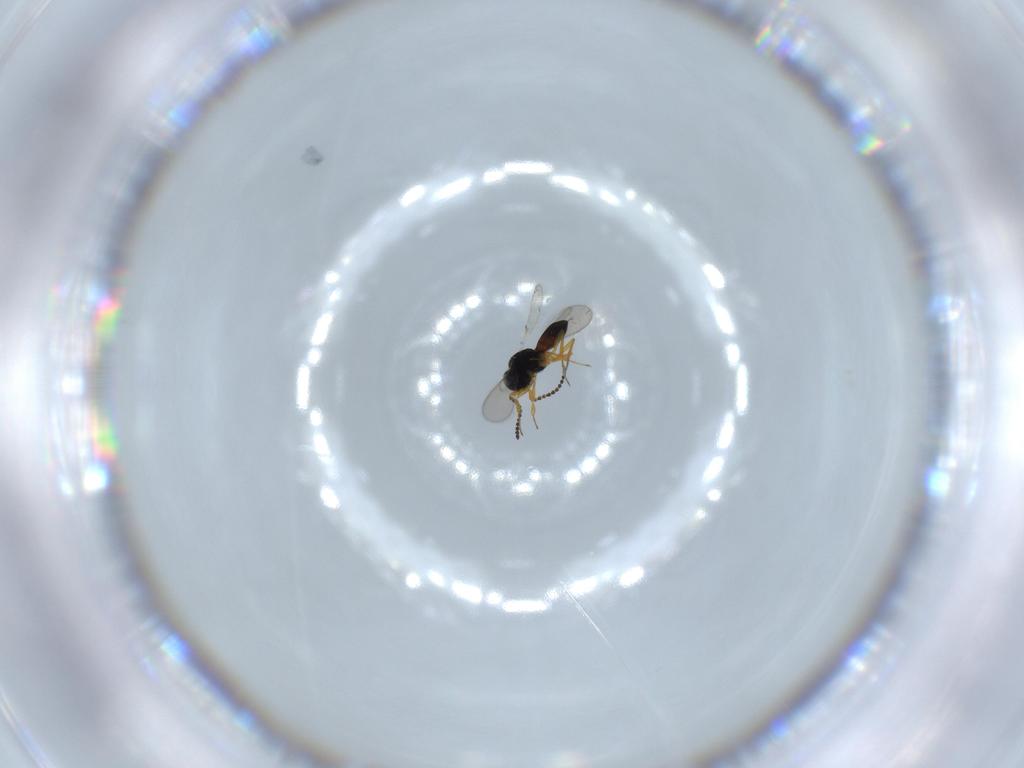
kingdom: Animalia
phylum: Arthropoda
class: Insecta
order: Hymenoptera
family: Scelionidae
